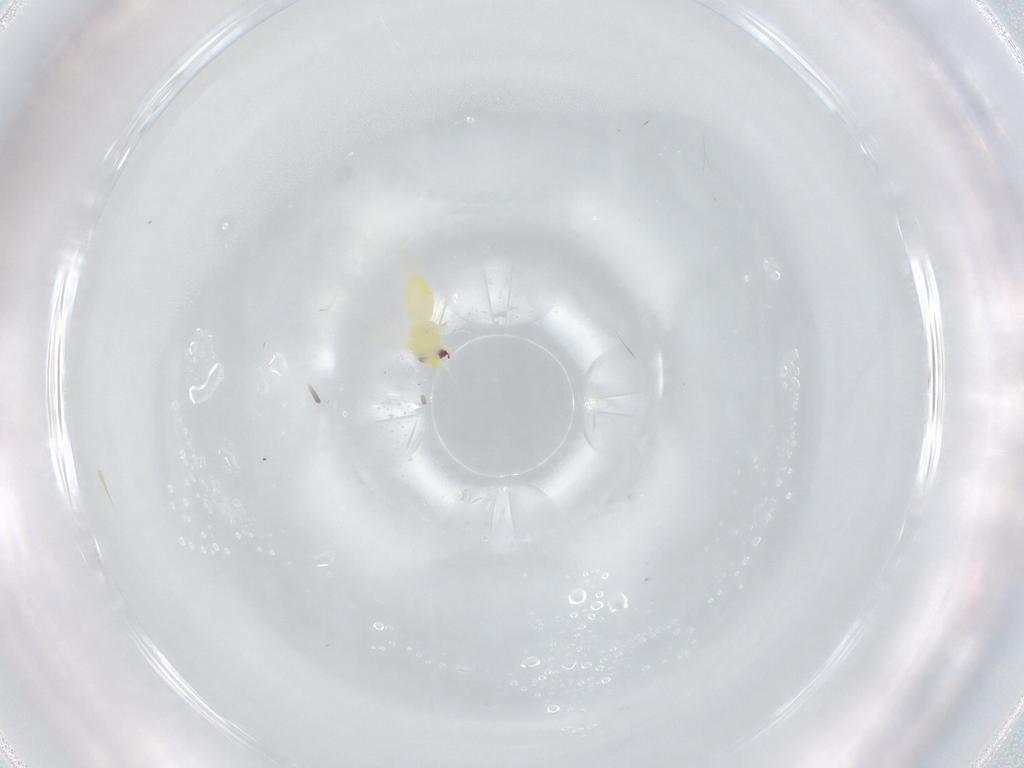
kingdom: Animalia
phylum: Arthropoda
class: Insecta
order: Hemiptera
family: Aleyrodidae
